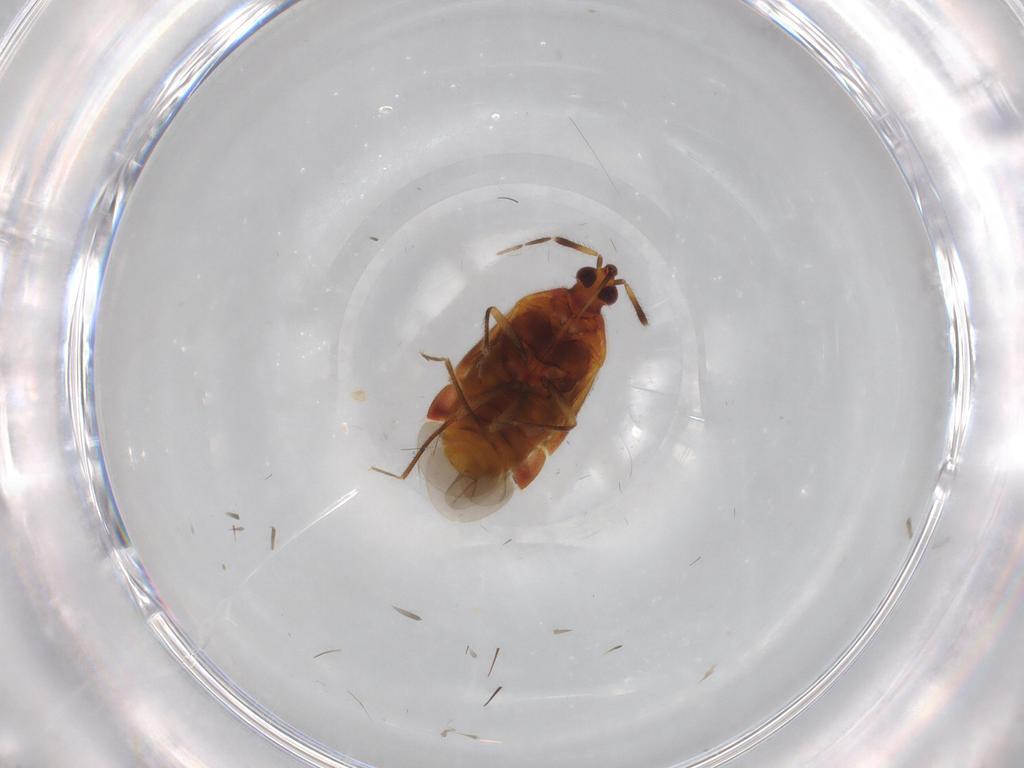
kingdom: Animalia
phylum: Arthropoda
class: Insecta
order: Hemiptera
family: Anthocoridae
